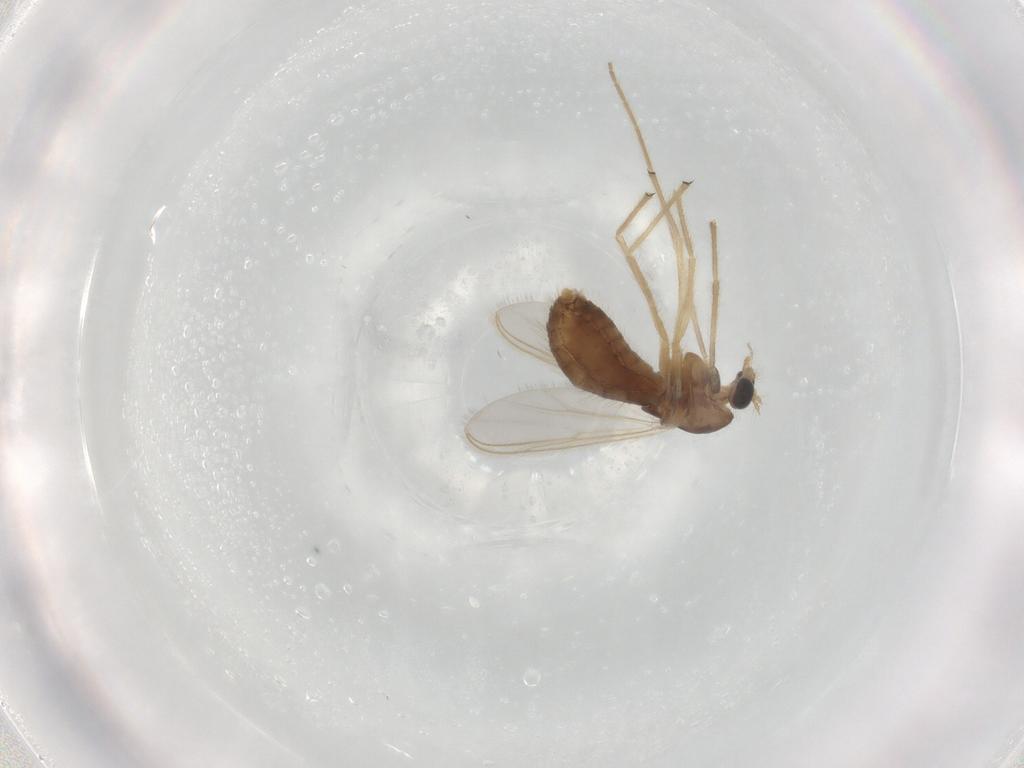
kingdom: Animalia
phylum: Arthropoda
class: Insecta
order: Diptera
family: Chironomidae
